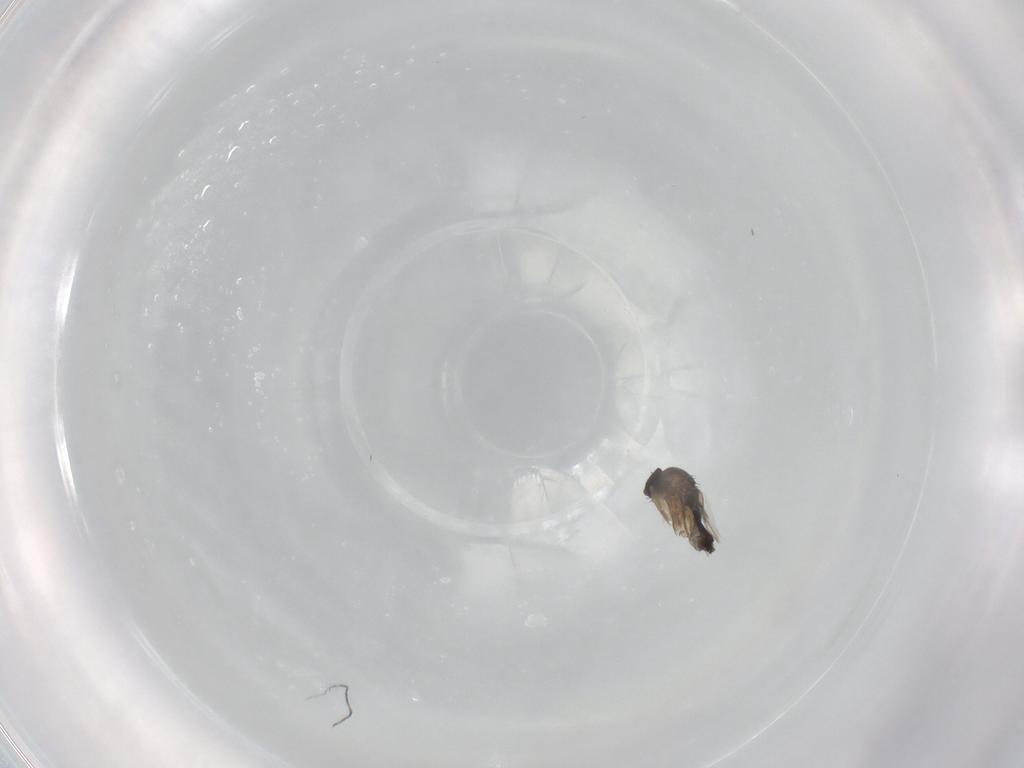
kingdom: Animalia
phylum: Arthropoda
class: Insecta
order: Diptera
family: Phoridae
